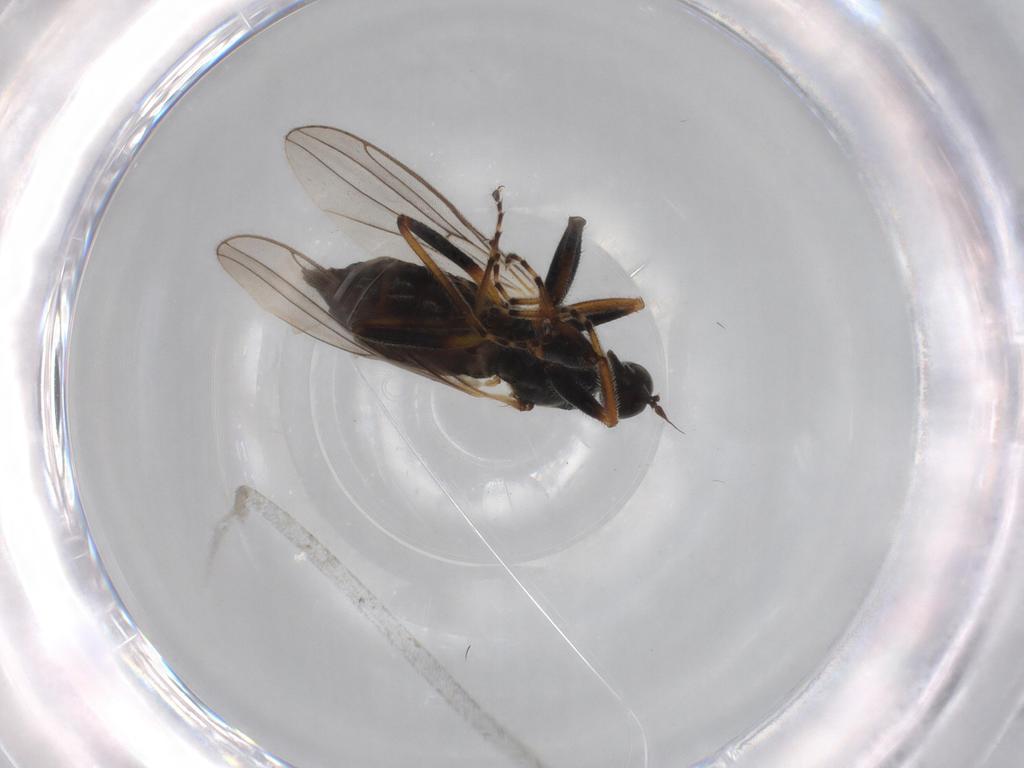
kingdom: Animalia
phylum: Arthropoda
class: Insecta
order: Diptera
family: Hybotidae
